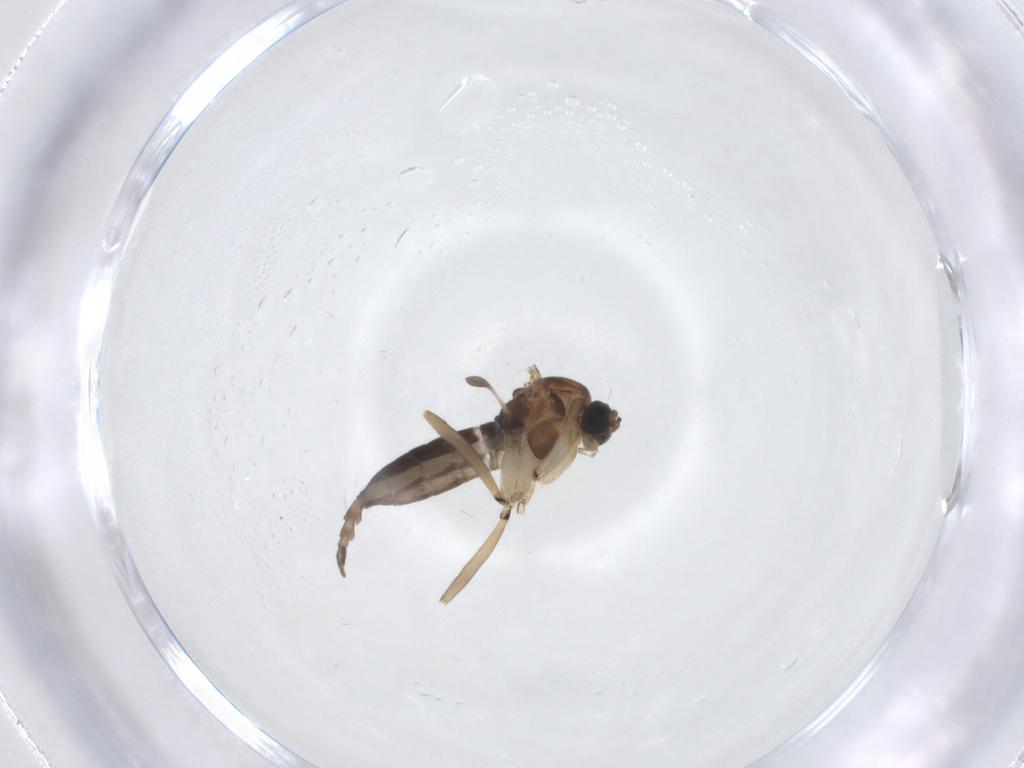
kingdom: Animalia
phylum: Arthropoda
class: Insecta
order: Diptera
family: Sciaridae
